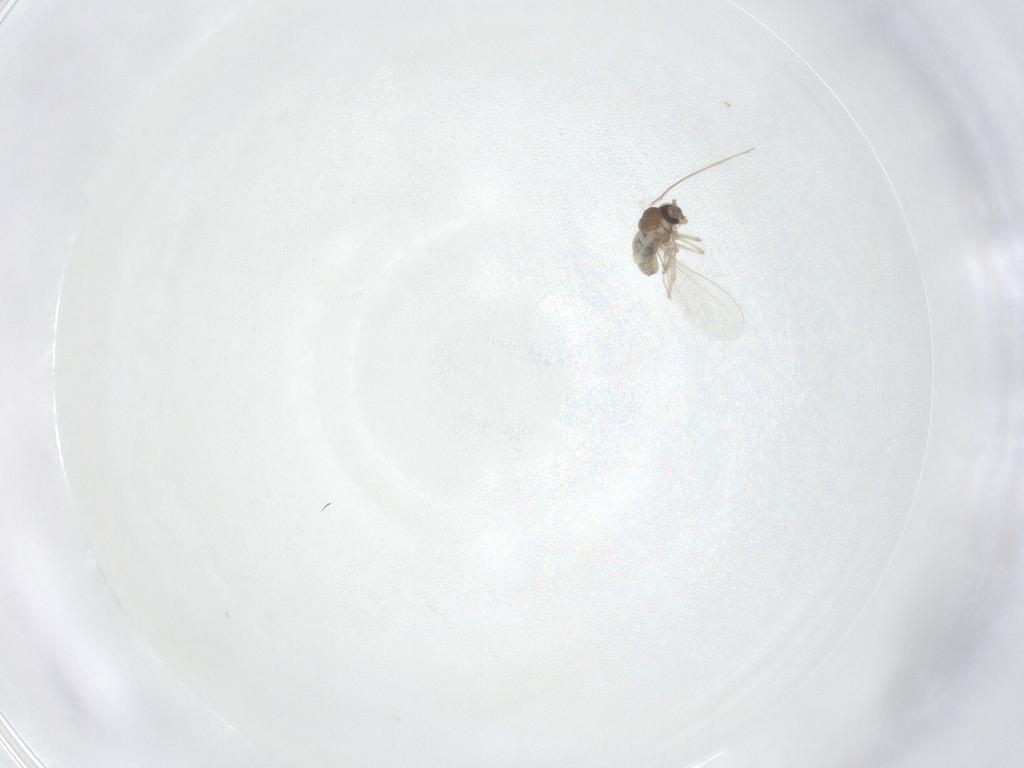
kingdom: Animalia
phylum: Arthropoda
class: Insecta
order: Diptera
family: Cecidomyiidae
